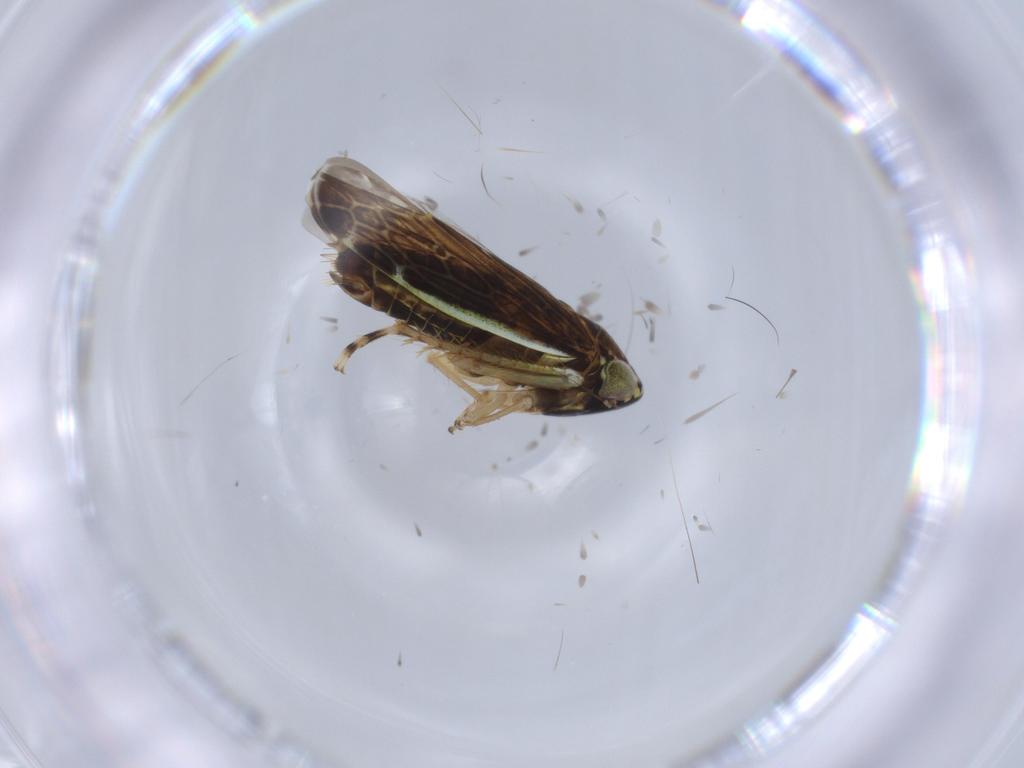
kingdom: Animalia
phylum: Arthropoda
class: Insecta
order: Hemiptera
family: Cicadellidae
